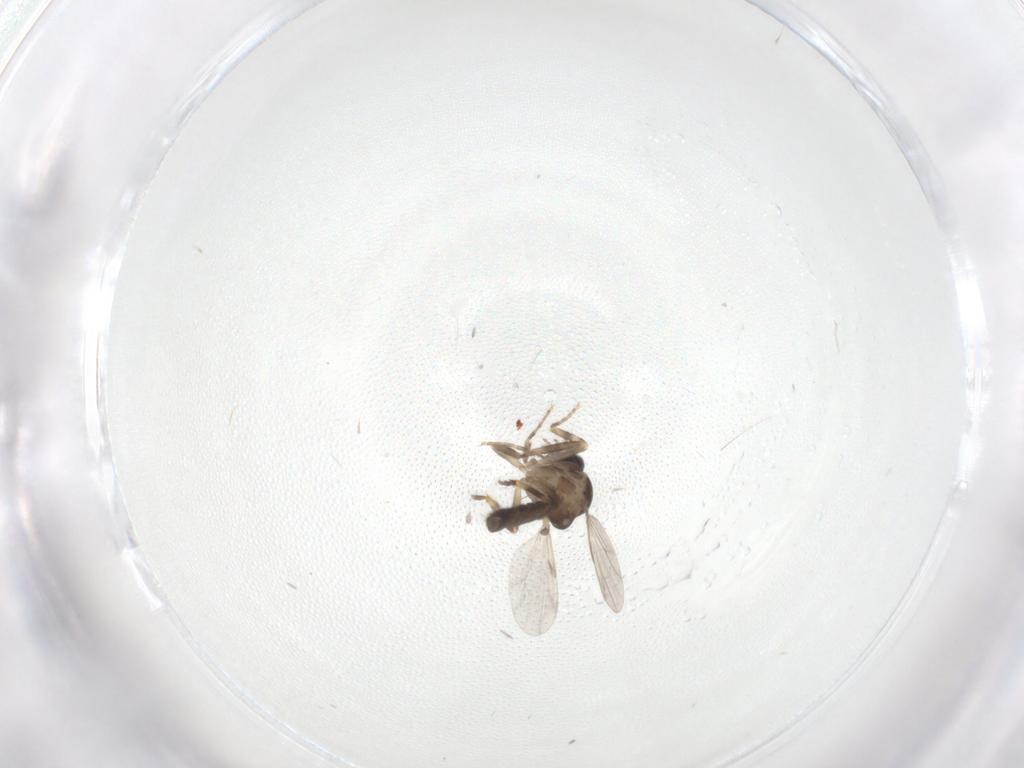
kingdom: Animalia
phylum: Arthropoda
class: Insecta
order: Diptera
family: Ceratopogonidae
